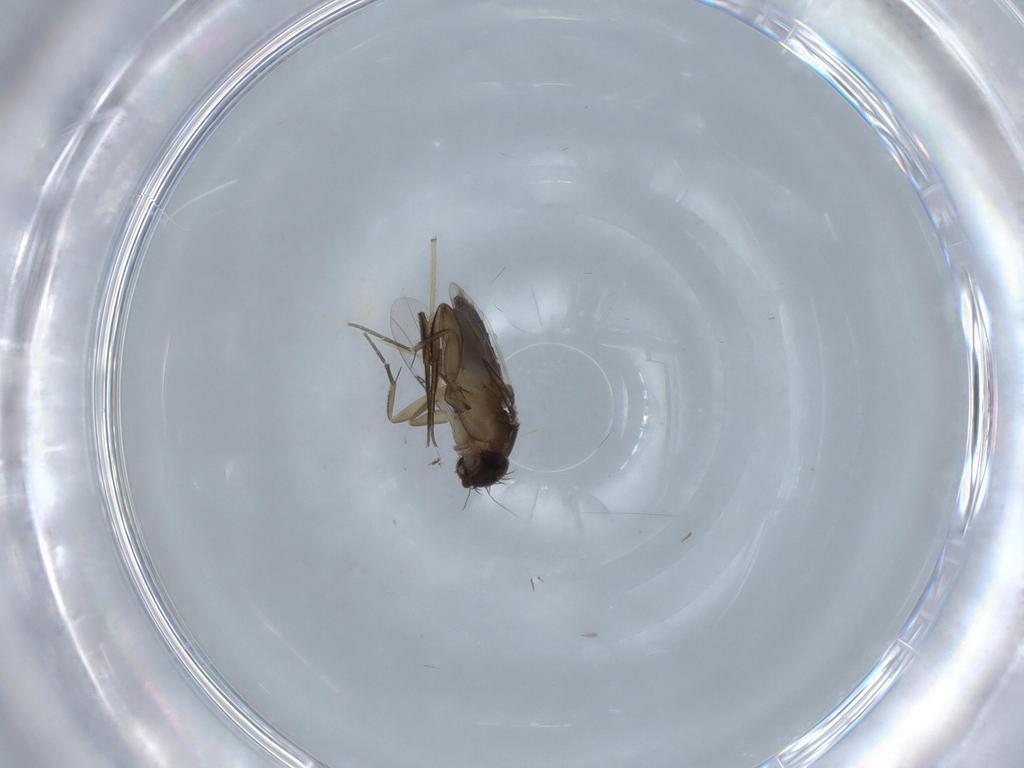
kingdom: Animalia
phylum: Arthropoda
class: Insecta
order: Diptera
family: Phoridae
